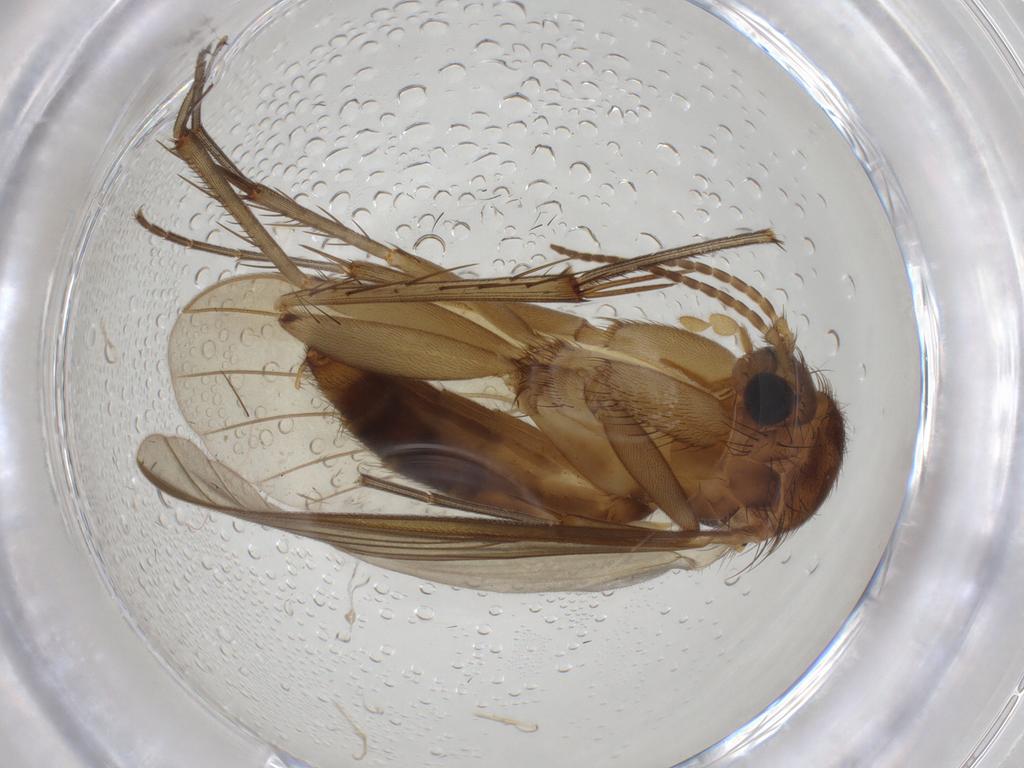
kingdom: Animalia
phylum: Arthropoda
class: Insecta
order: Diptera
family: Mycetophilidae
